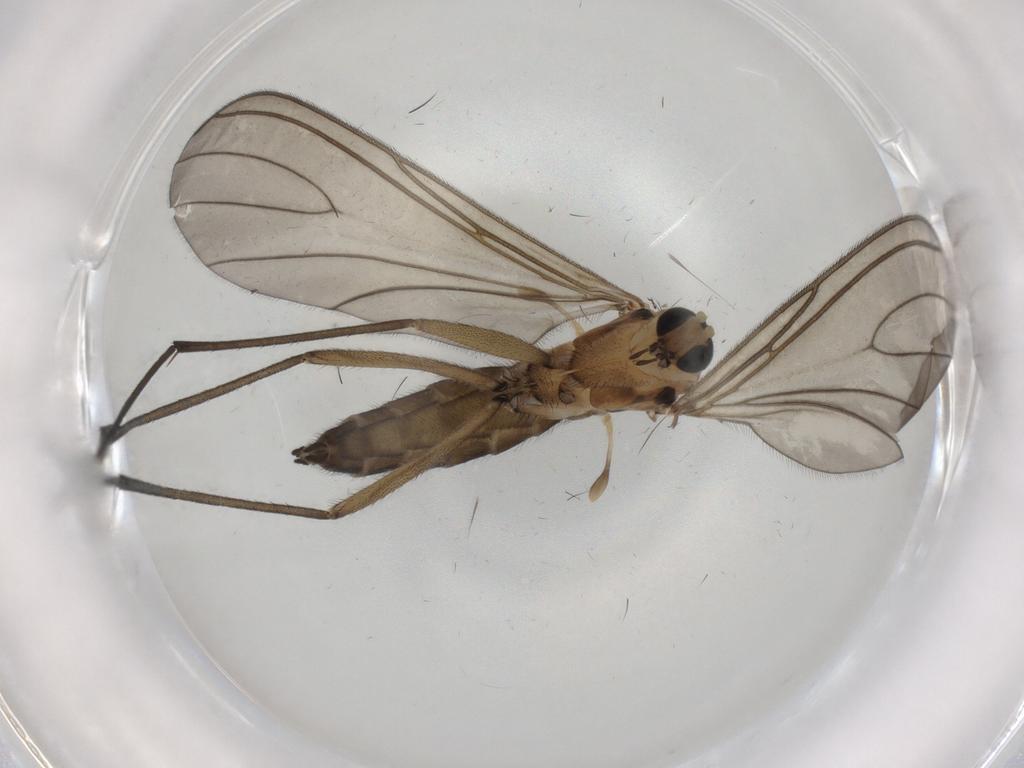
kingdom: Animalia
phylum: Arthropoda
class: Insecta
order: Diptera
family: Sciaridae
